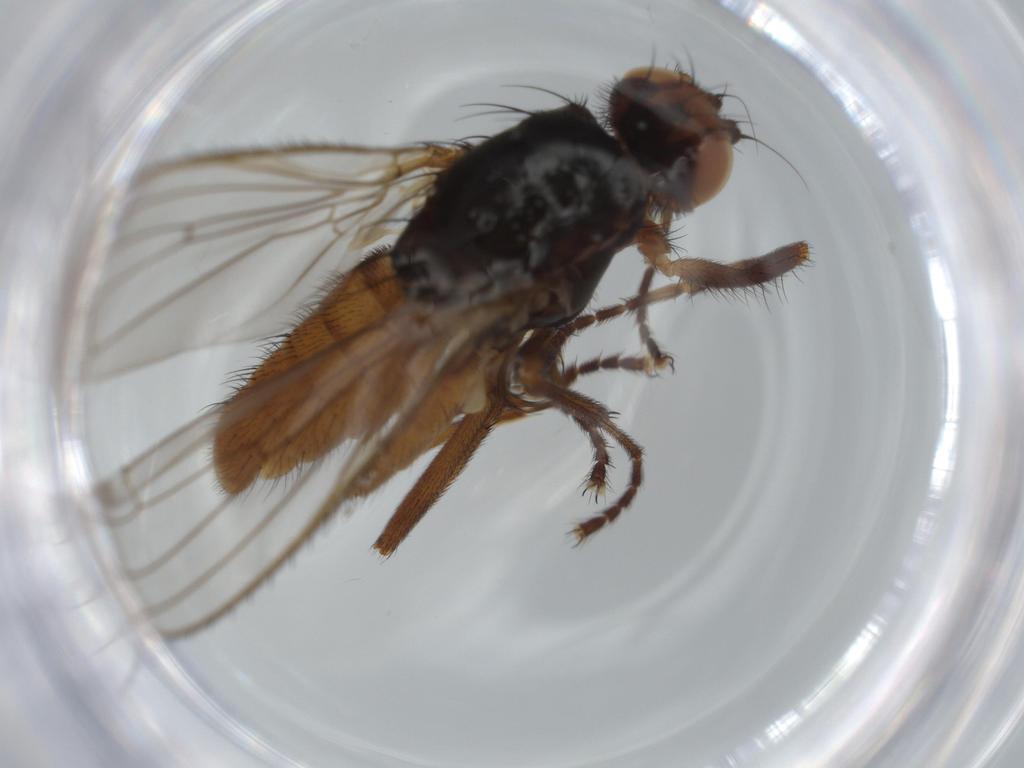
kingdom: Animalia
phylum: Arthropoda
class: Insecta
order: Diptera
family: Heleomyzidae
